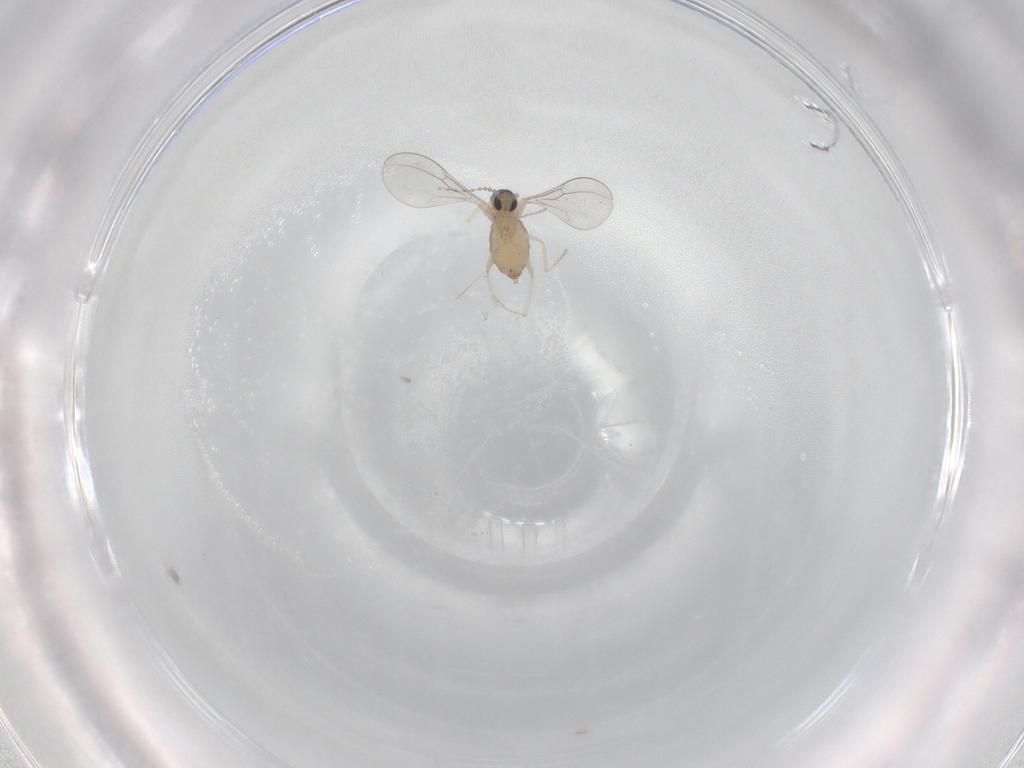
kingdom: Animalia
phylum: Arthropoda
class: Insecta
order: Diptera
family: Cecidomyiidae
